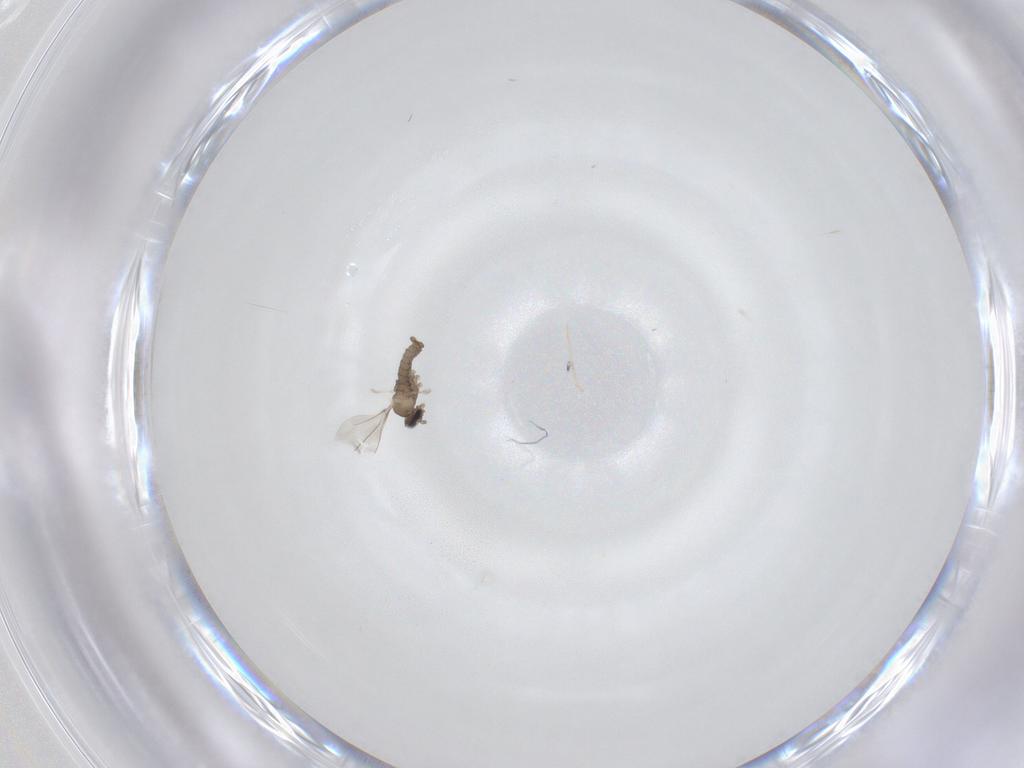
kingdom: Animalia
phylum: Arthropoda
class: Insecta
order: Diptera
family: Cecidomyiidae
